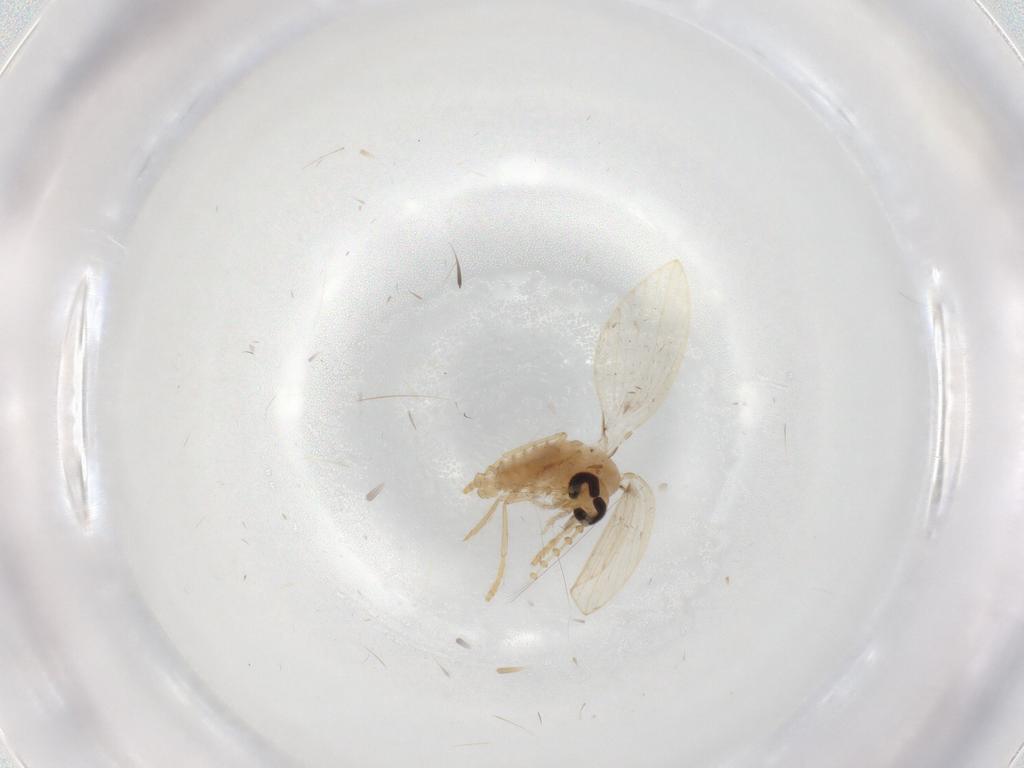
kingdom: Animalia
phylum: Arthropoda
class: Insecta
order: Diptera
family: Psychodidae
